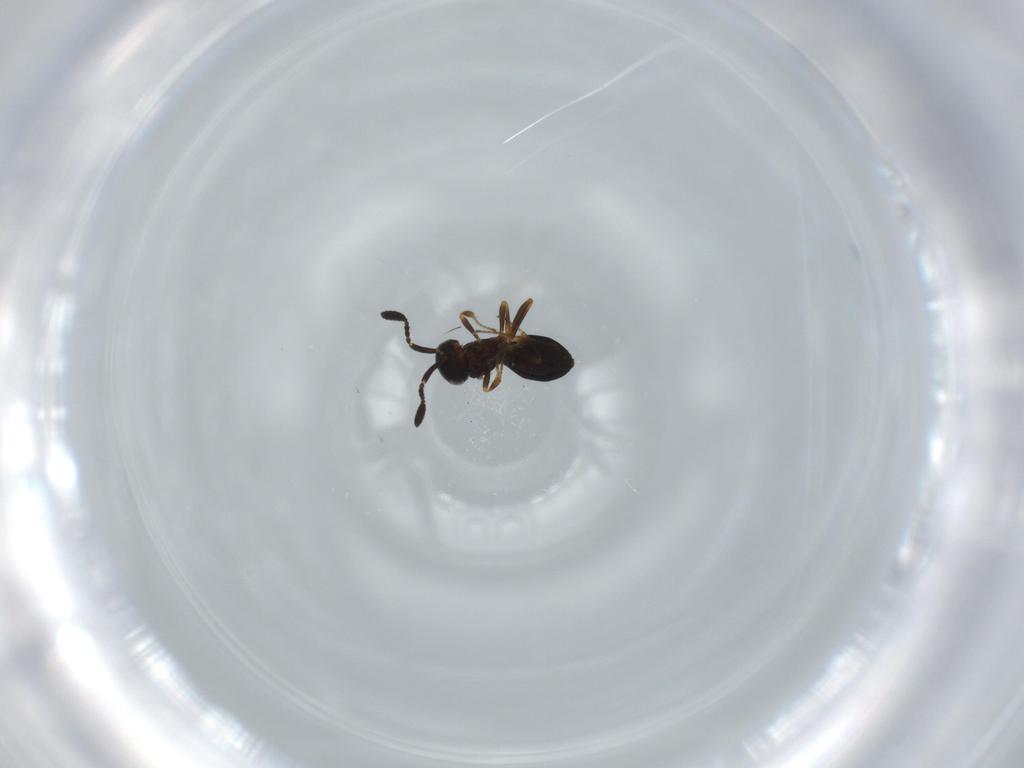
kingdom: Animalia
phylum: Arthropoda
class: Insecta
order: Hymenoptera
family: Scelionidae
